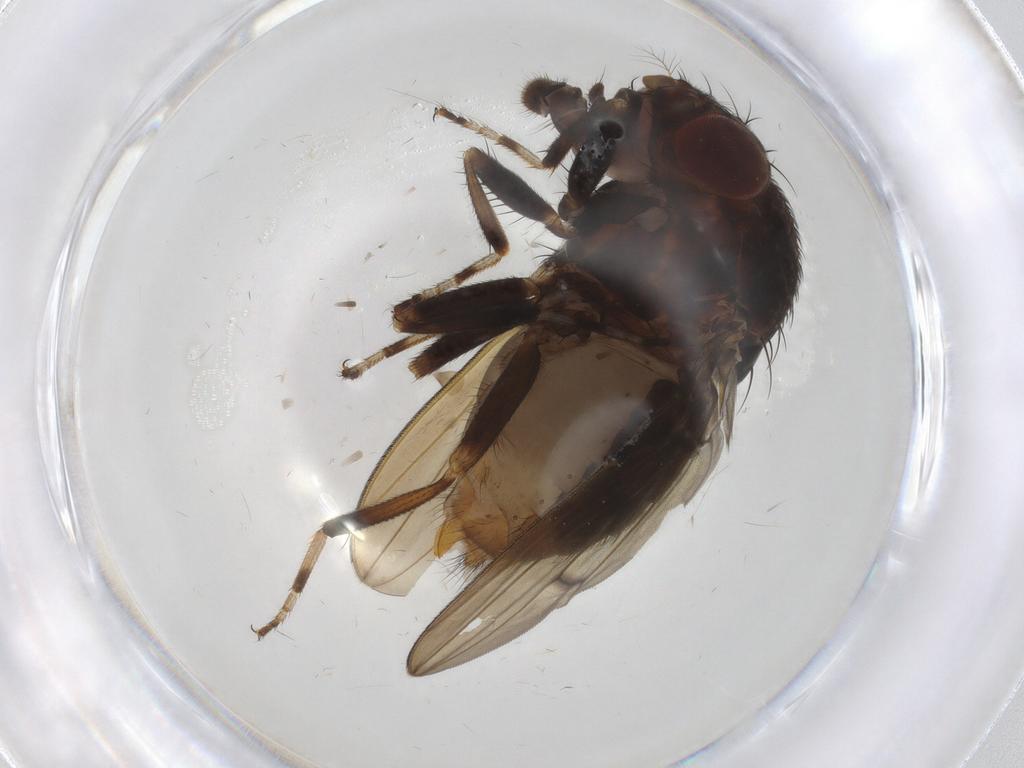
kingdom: Animalia
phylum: Arthropoda
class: Insecta
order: Diptera
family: Drosophilidae
